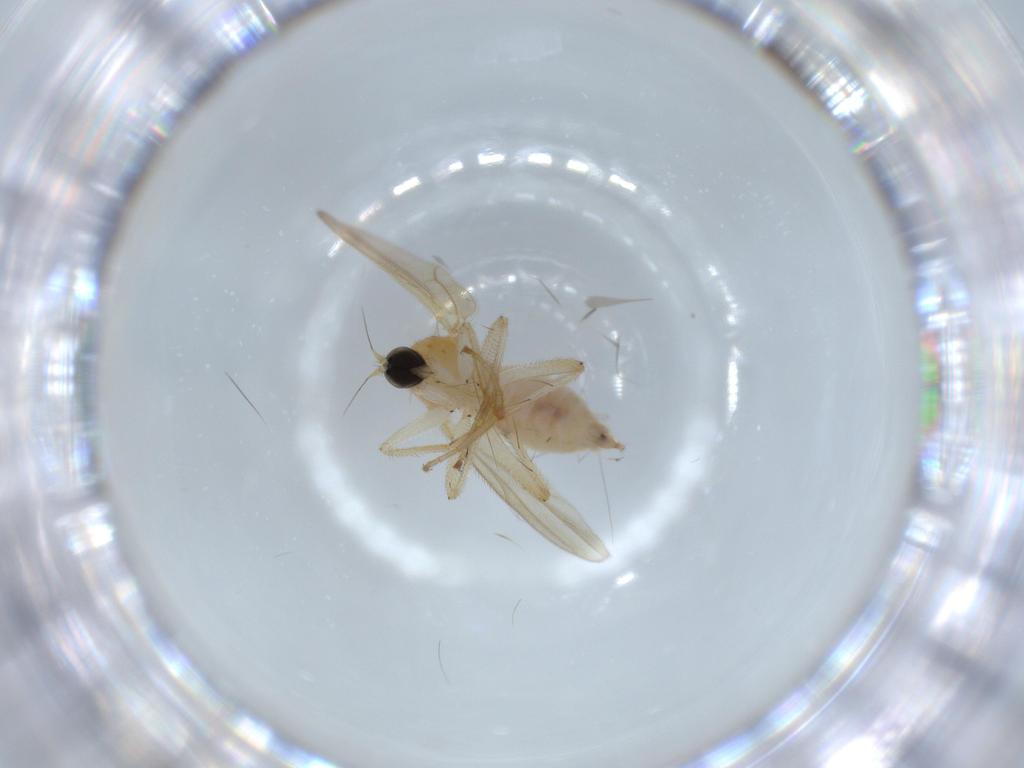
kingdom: Animalia
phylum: Arthropoda
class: Insecta
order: Diptera
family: Hybotidae
